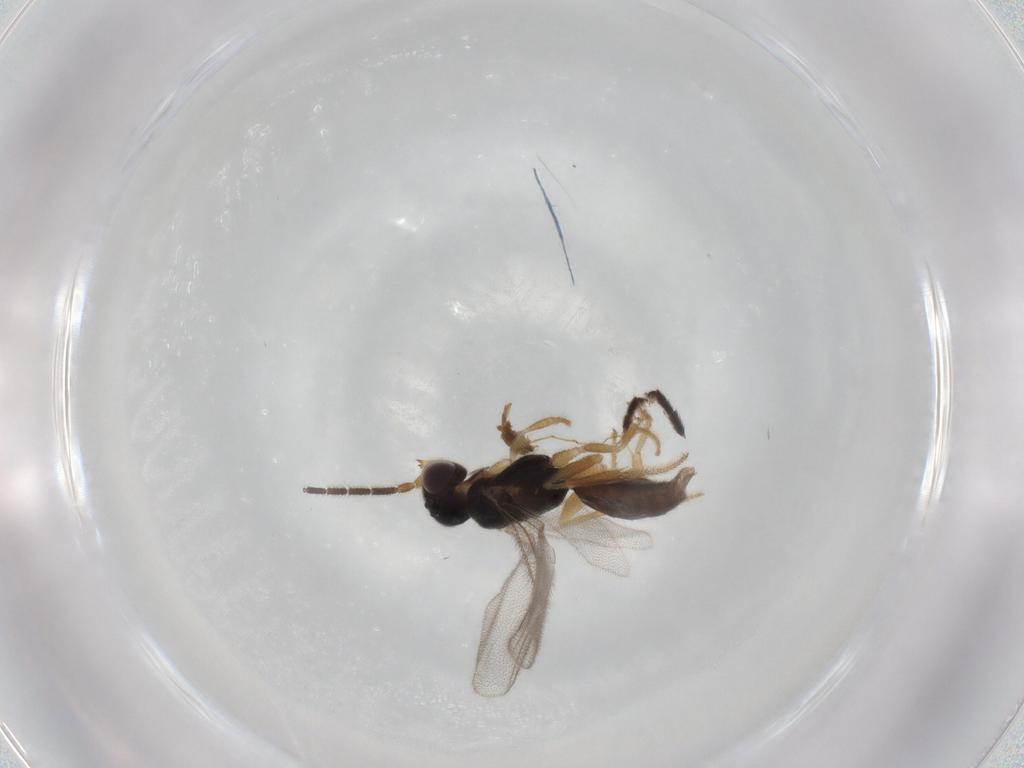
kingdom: Animalia
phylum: Arthropoda
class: Insecta
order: Hymenoptera
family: Dryinidae
